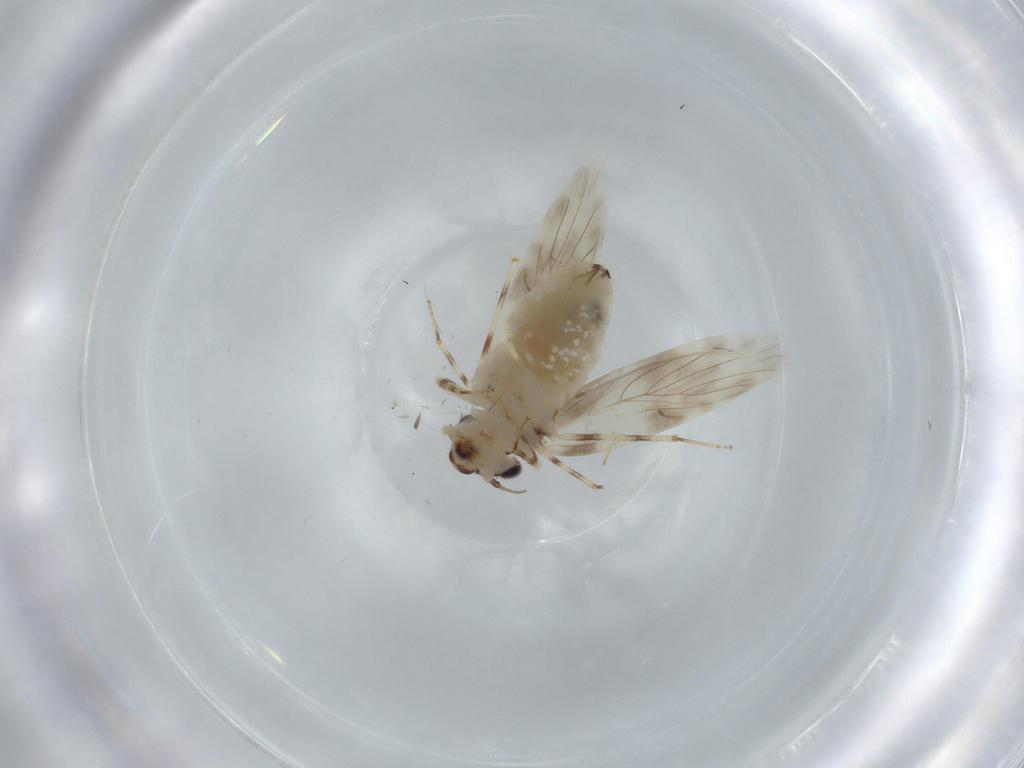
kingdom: Animalia
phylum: Arthropoda
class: Insecta
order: Psocodea
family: Lepidopsocidae
